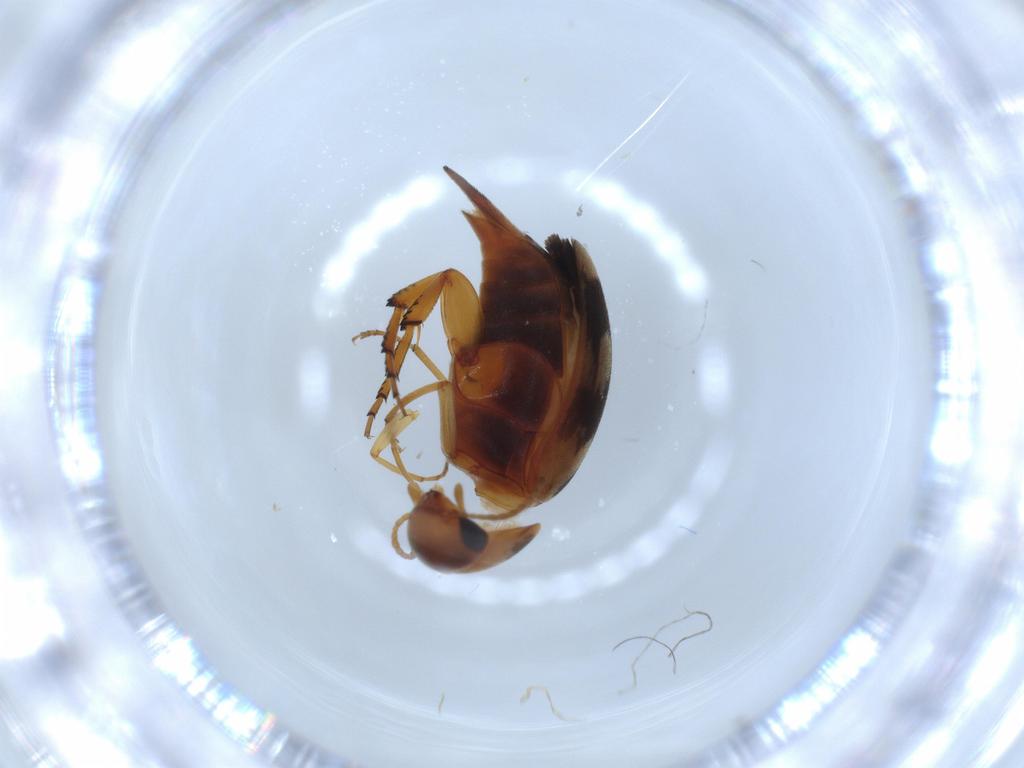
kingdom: Animalia
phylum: Arthropoda
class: Insecta
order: Coleoptera
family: Mordellidae
